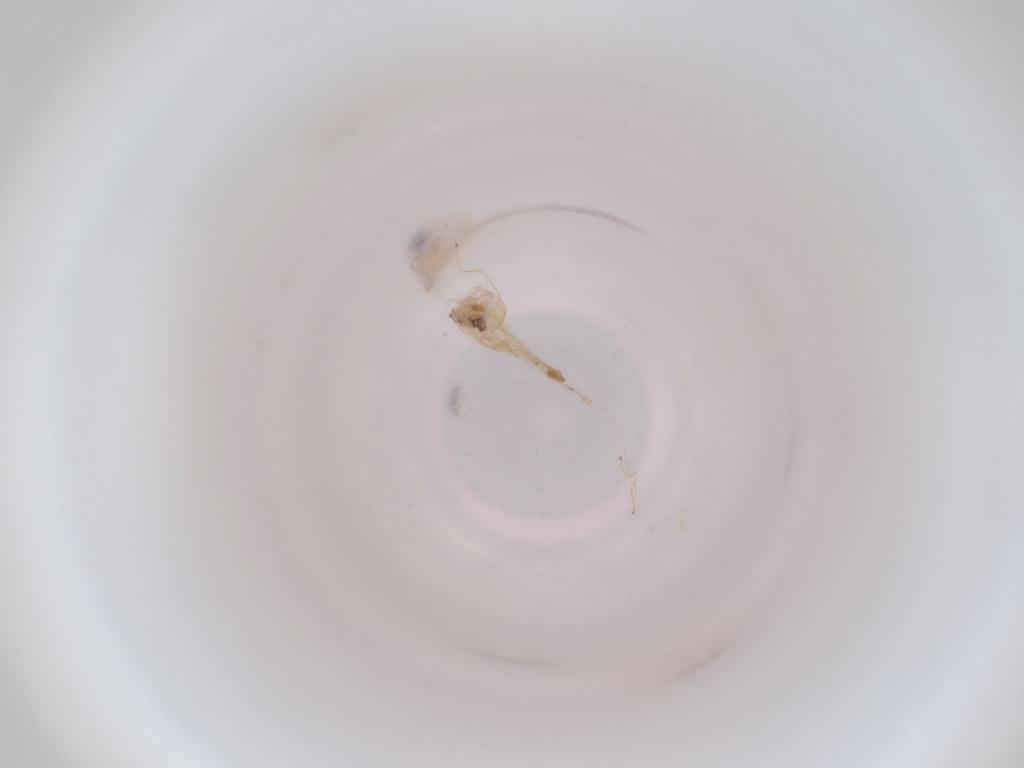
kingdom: Animalia
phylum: Arthropoda
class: Insecta
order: Diptera
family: Cecidomyiidae
